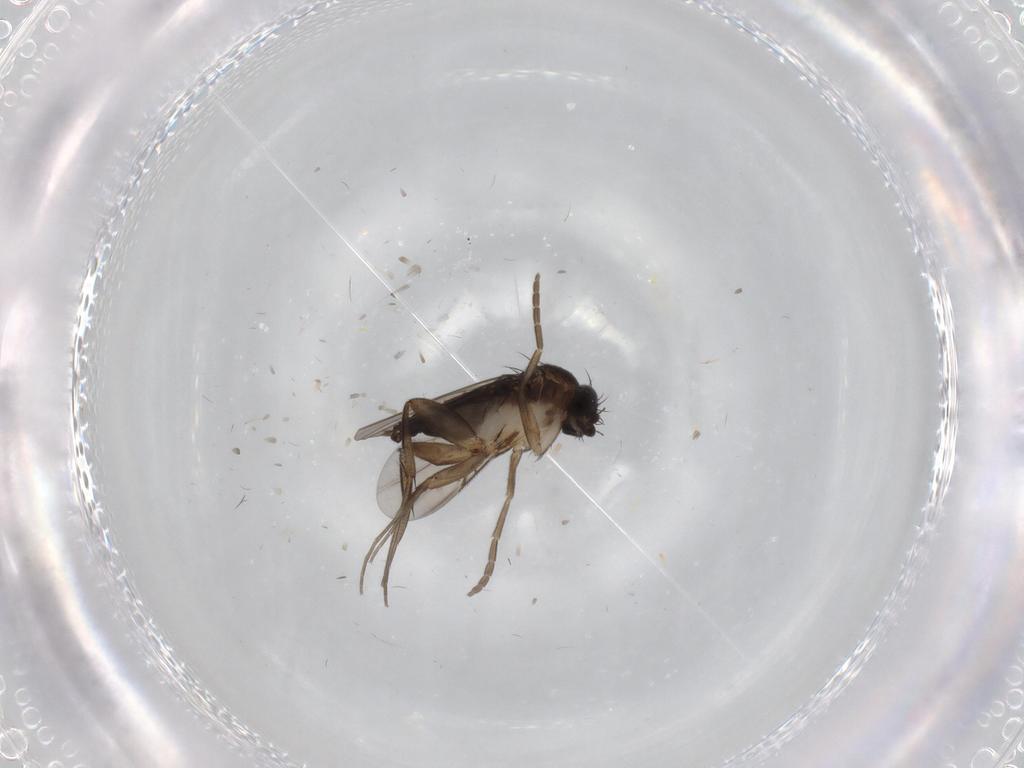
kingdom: Animalia
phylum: Arthropoda
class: Insecta
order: Diptera
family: Phoridae
